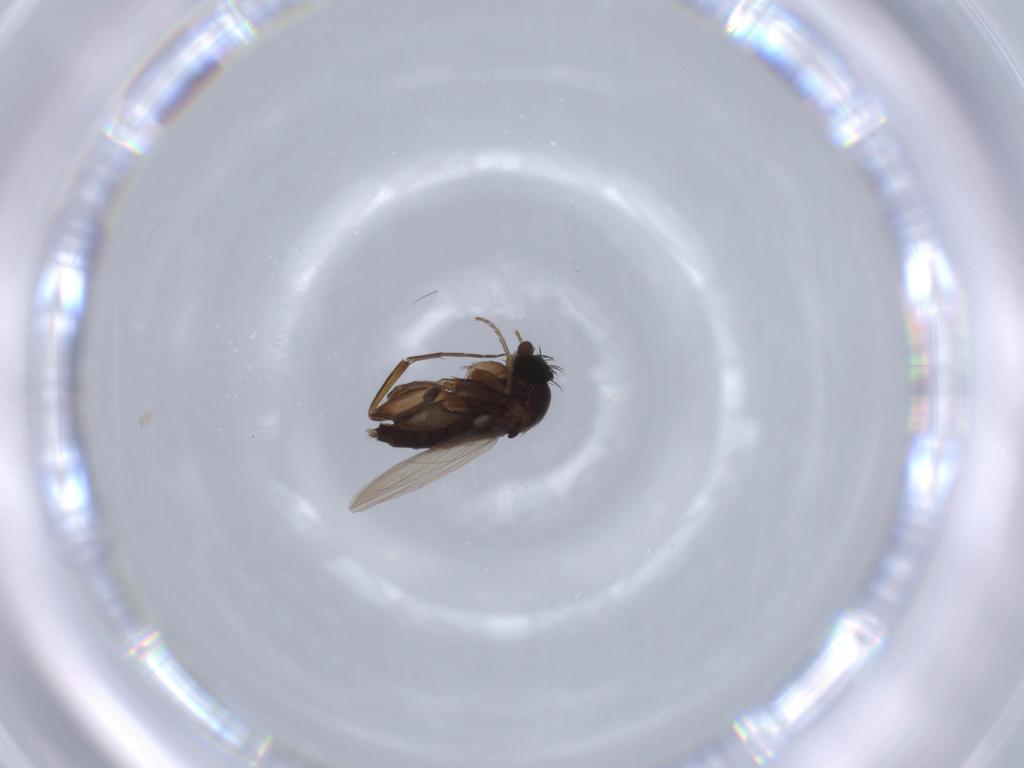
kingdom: Animalia
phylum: Arthropoda
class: Insecta
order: Diptera
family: Phoridae
